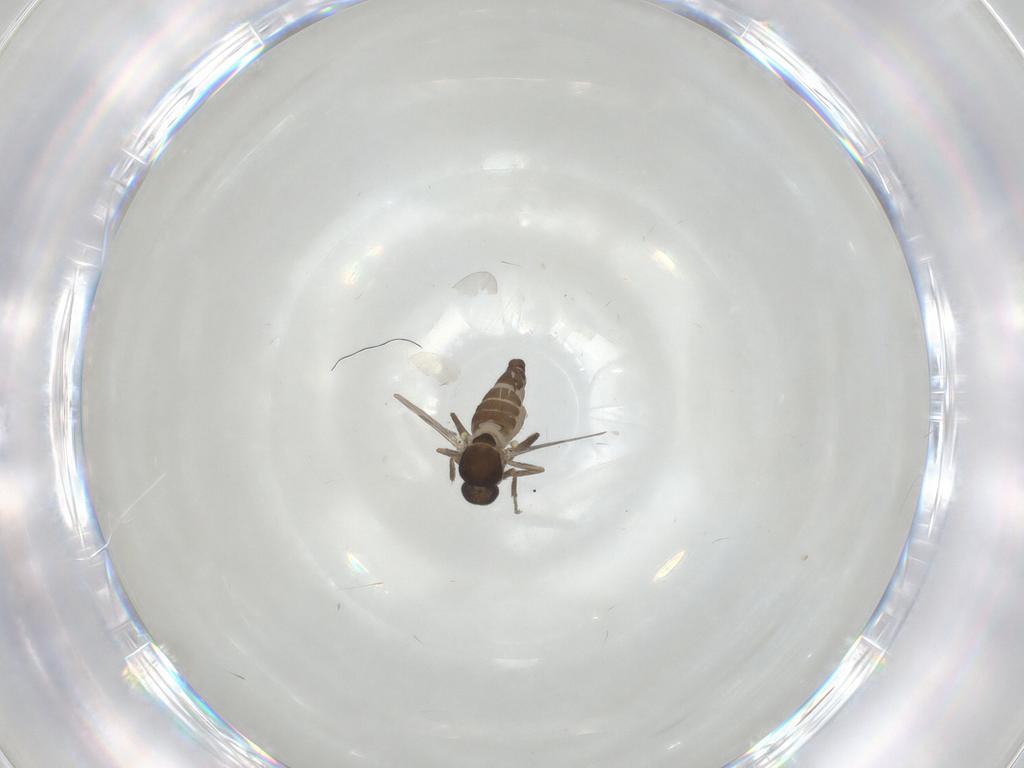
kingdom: Animalia
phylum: Arthropoda
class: Insecta
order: Diptera
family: Ceratopogonidae
